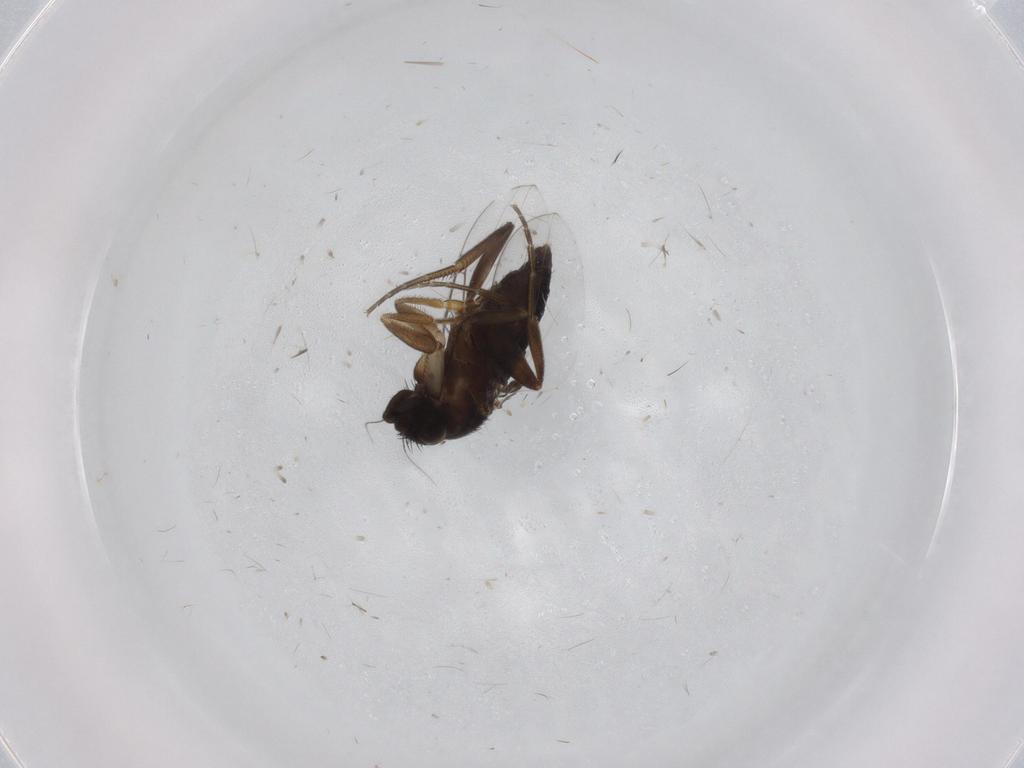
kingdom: Animalia
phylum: Arthropoda
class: Insecta
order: Diptera
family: Phoridae
